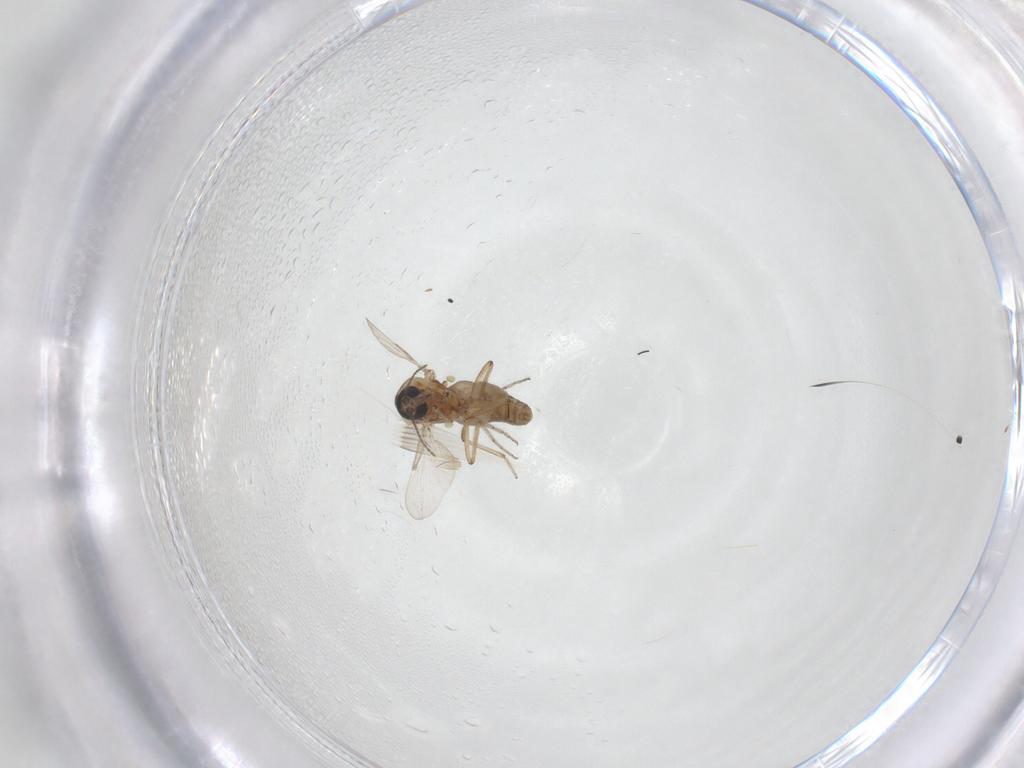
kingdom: Animalia
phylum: Arthropoda
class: Insecta
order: Diptera
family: Ceratopogonidae
